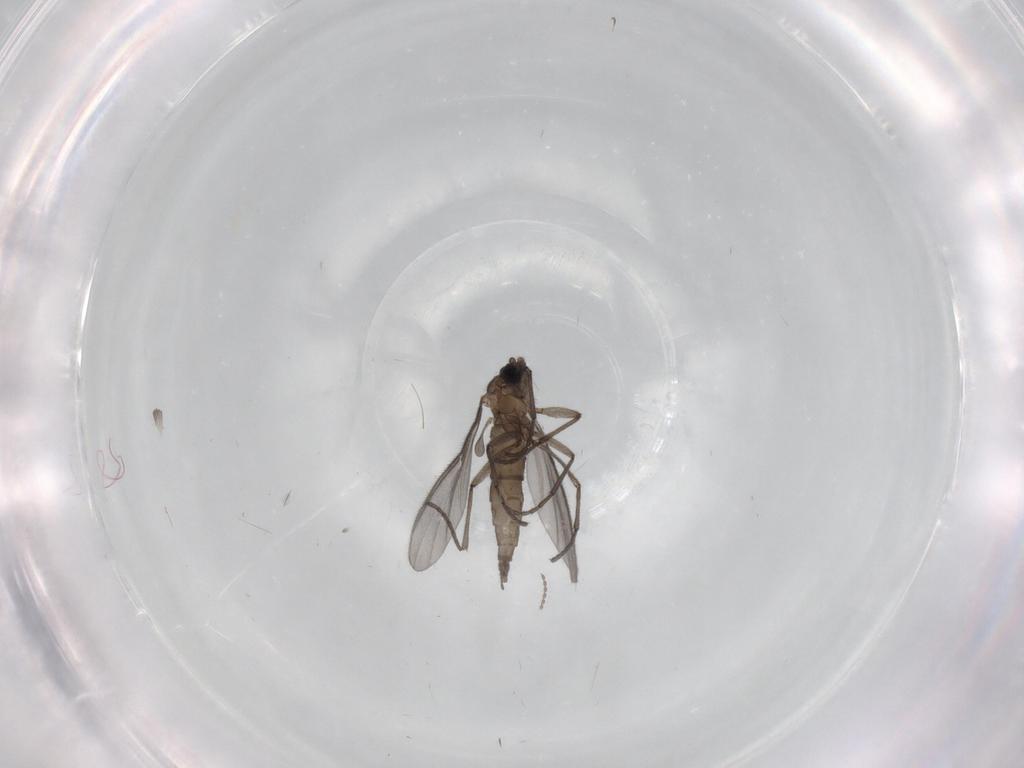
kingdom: Animalia
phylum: Arthropoda
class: Insecta
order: Diptera
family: Sciaridae
